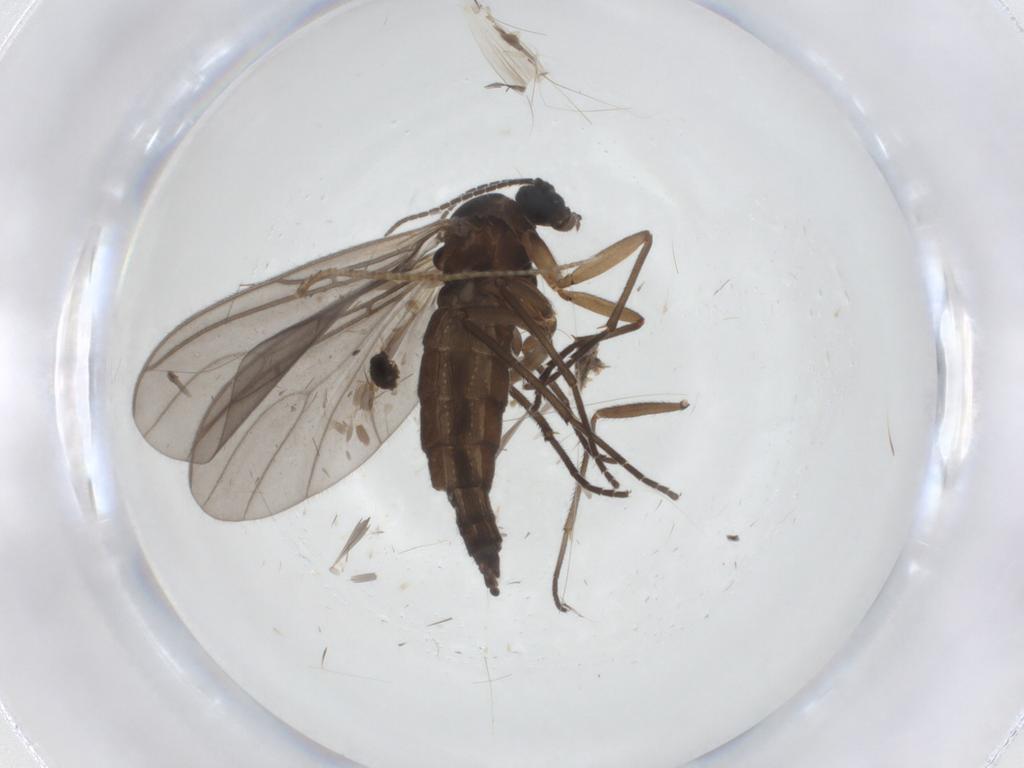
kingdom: Animalia
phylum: Arthropoda
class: Insecta
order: Diptera
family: Sciaridae
